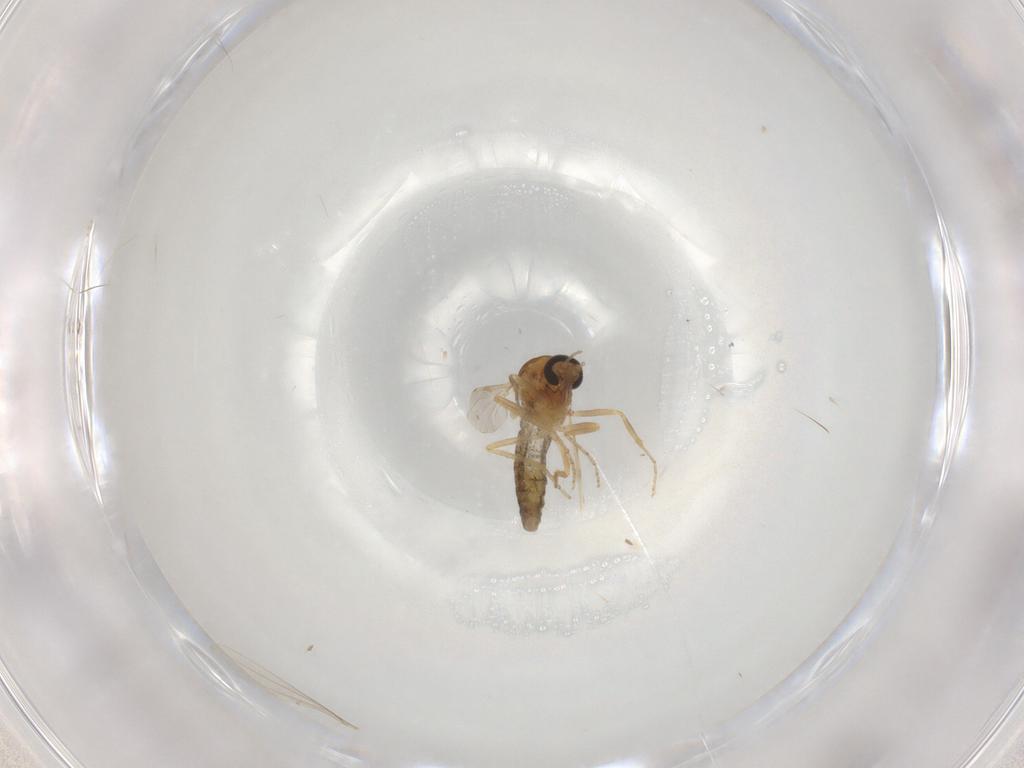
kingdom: Animalia
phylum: Arthropoda
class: Insecta
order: Diptera
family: Ceratopogonidae
